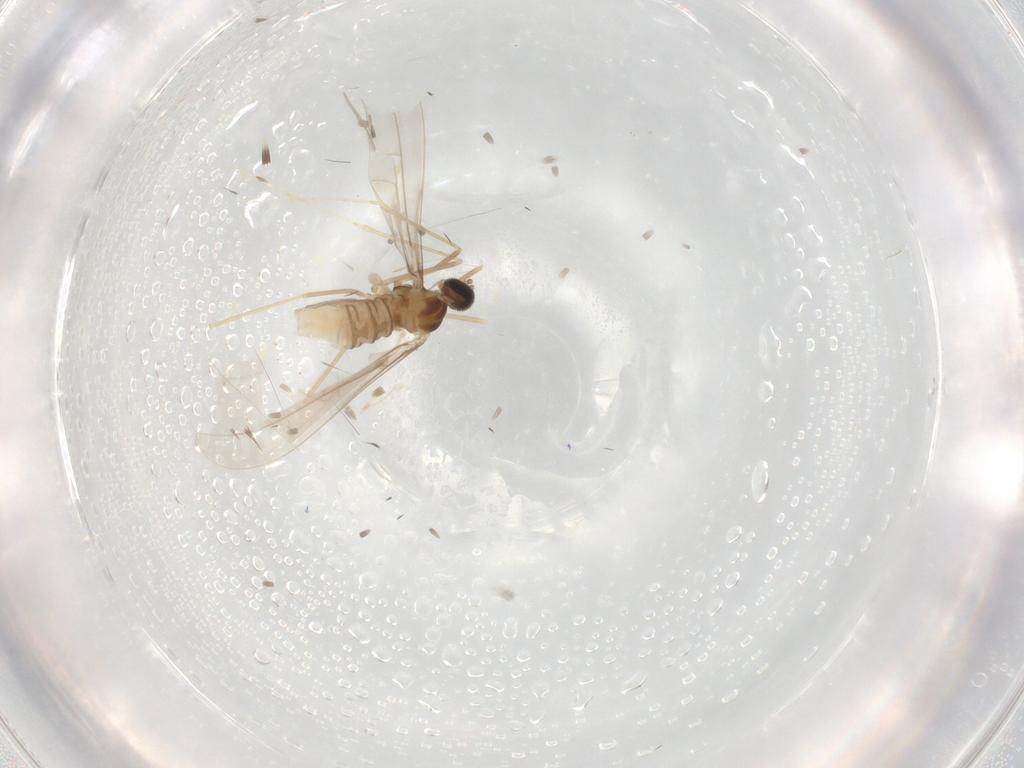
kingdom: Animalia
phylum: Arthropoda
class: Insecta
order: Diptera
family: Cecidomyiidae
